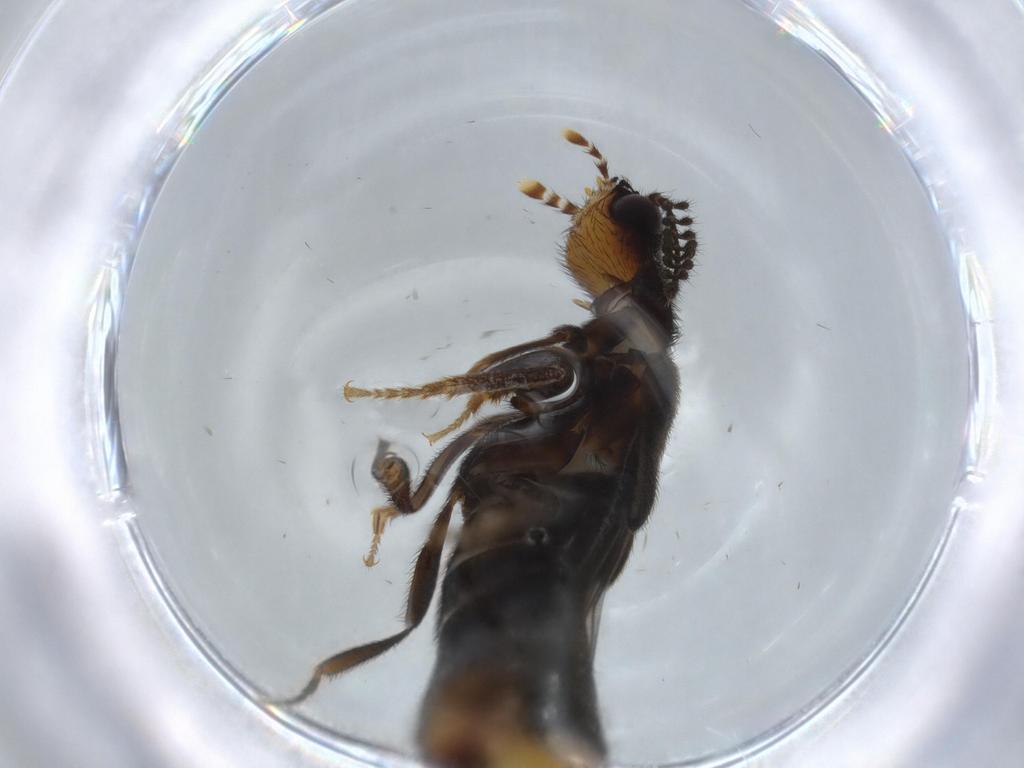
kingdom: Animalia
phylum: Arthropoda
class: Insecta
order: Coleoptera
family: Phengodidae
